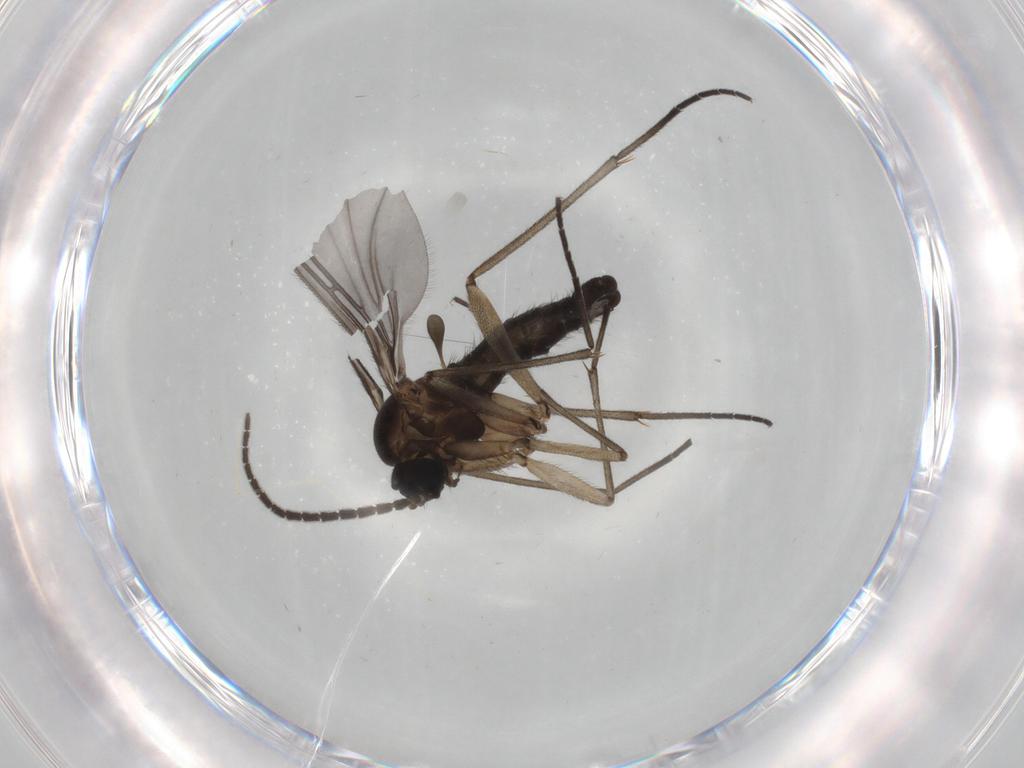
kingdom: Animalia
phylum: Arthropoda
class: Insecta
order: Diptera
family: Sciaridae
